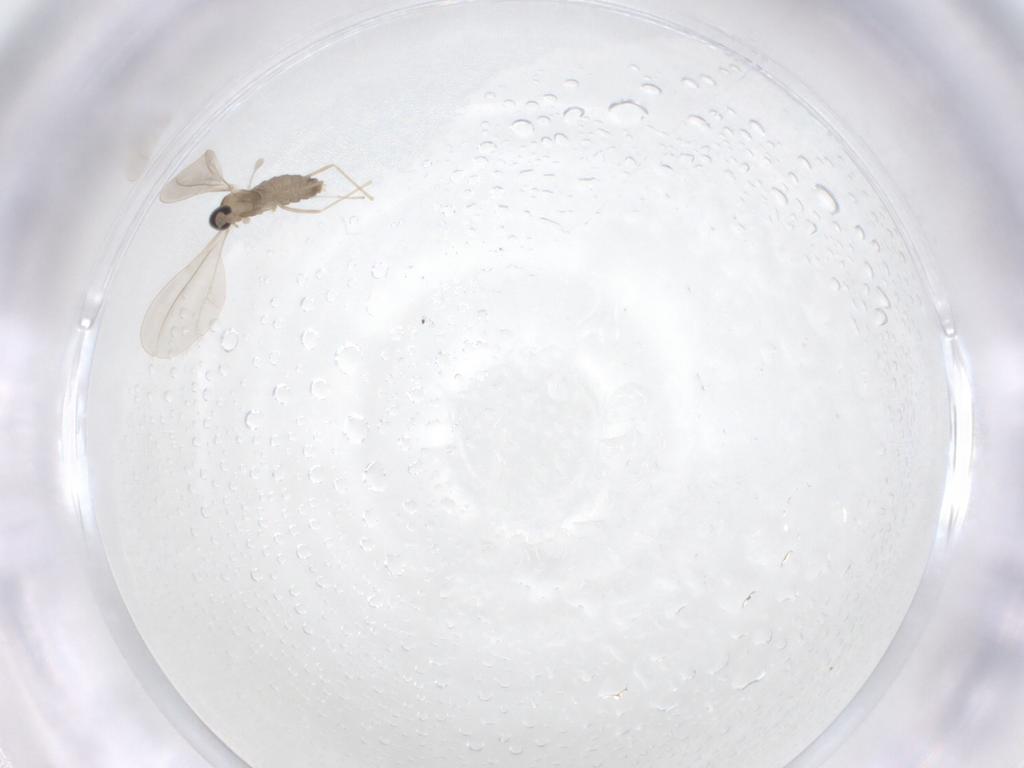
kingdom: Animalia
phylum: Arthropoda
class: Insecta
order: Diptera
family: Cecidomyiidae
